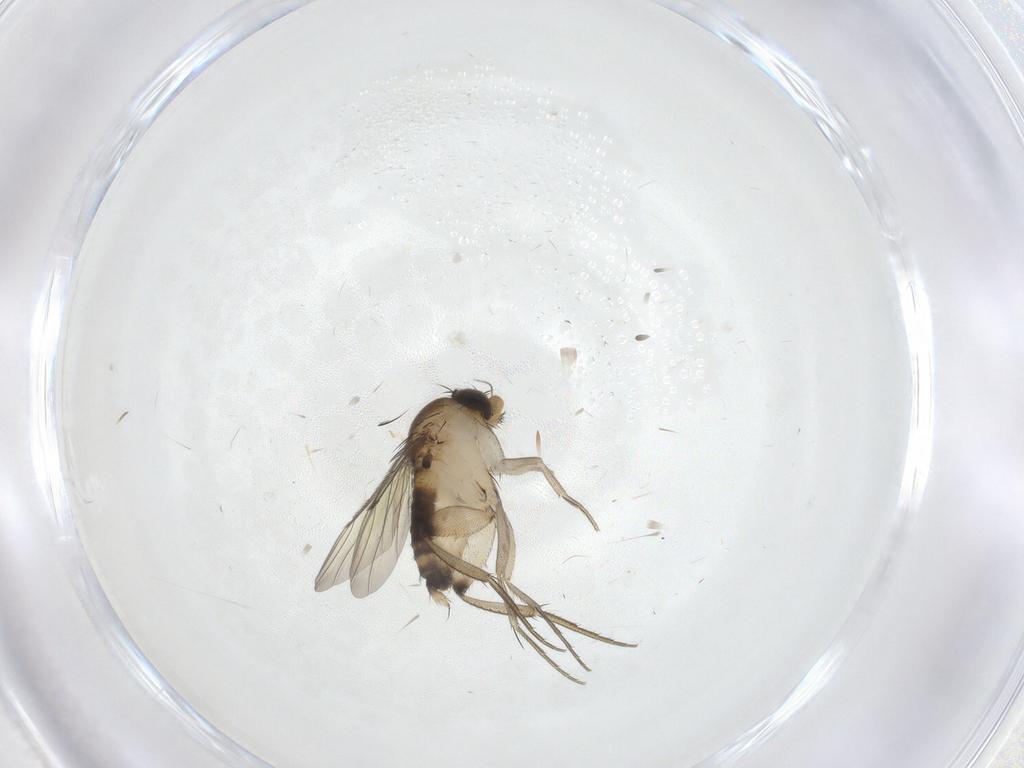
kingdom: Animalia
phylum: Arthropoda
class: Insecta
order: Diptera
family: Phoridae
